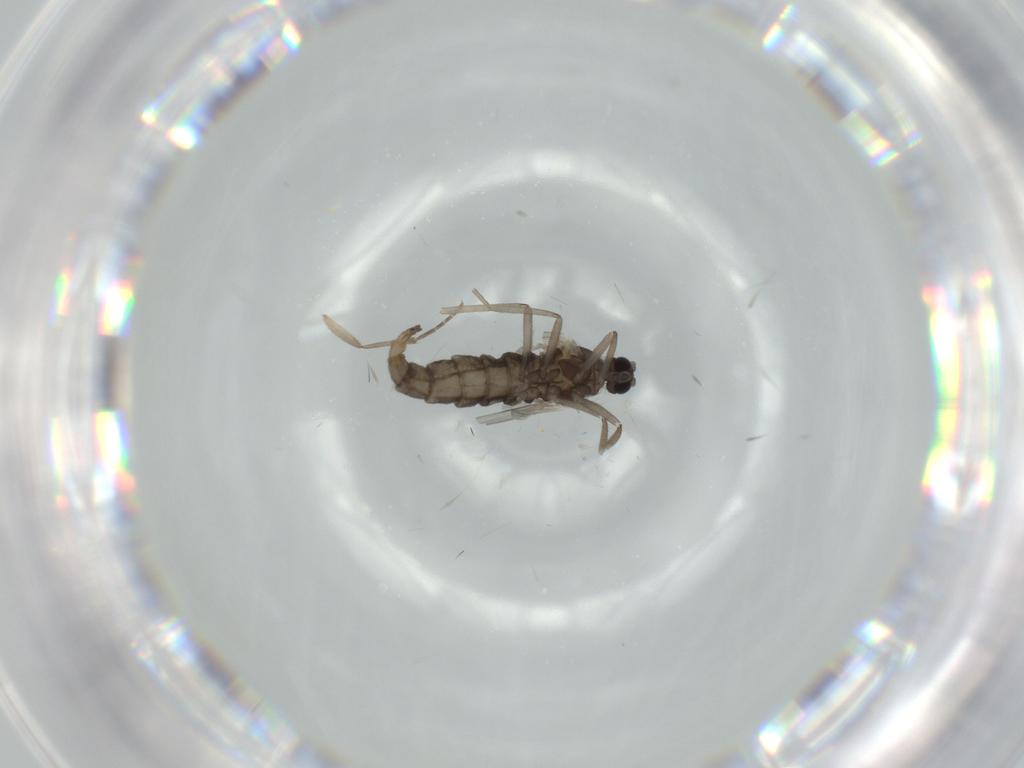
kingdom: Animalia
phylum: Arthropoda
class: Insecta
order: Diptera
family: Cecidomyiidae
